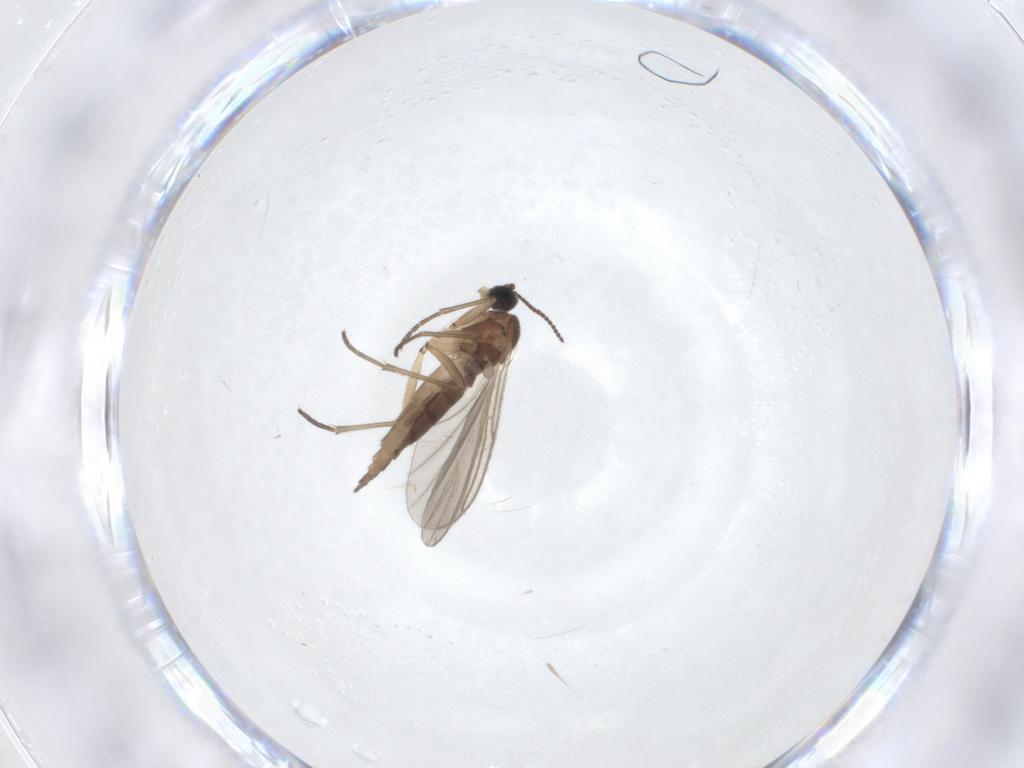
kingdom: Animalia
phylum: Arthropoda
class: Insecta
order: Diptera
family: Sciaridae
